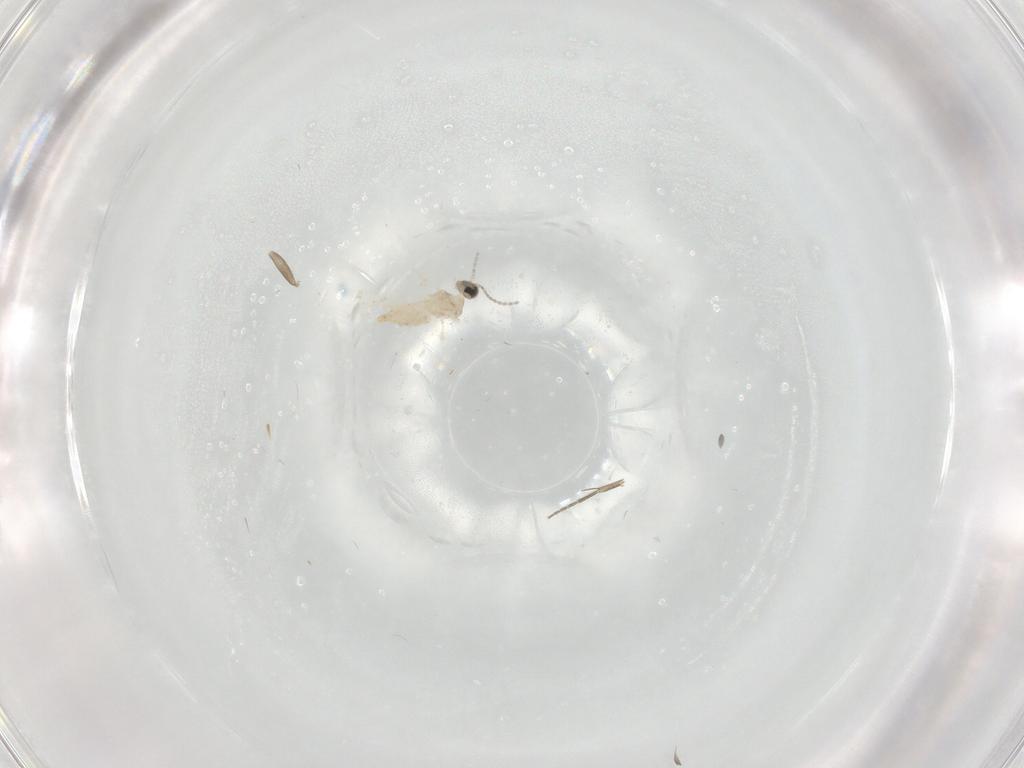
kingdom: Animalia
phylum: Arthropoda
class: Insecta
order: Diptera
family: Cecidomyiidae
